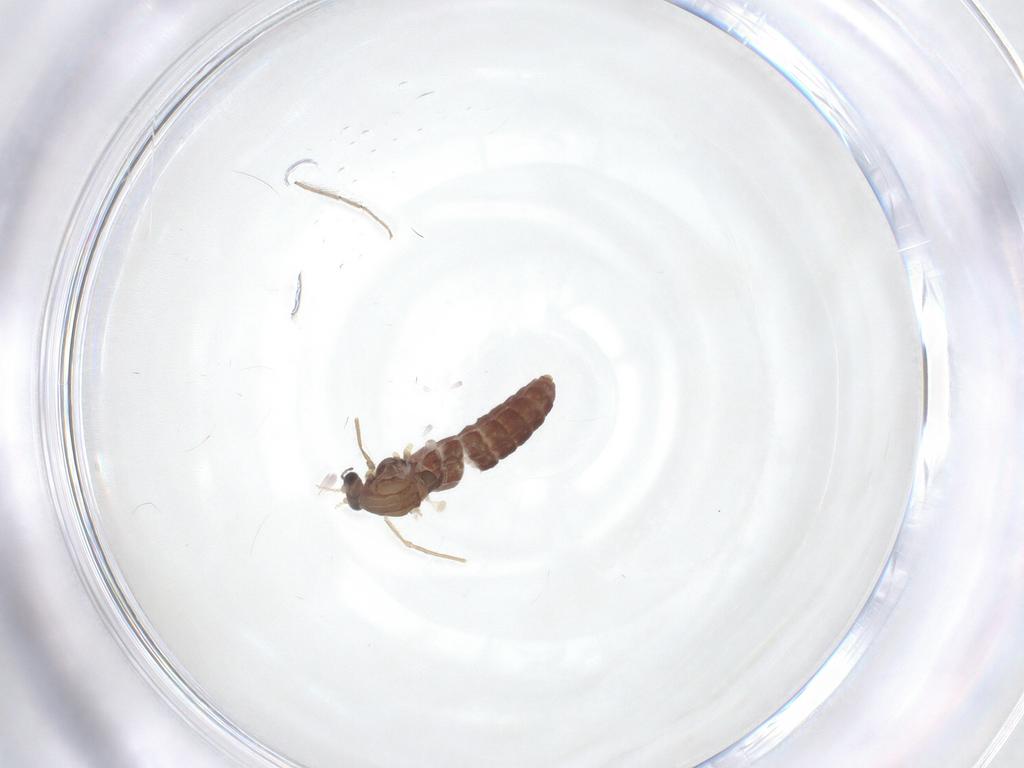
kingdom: Animalia
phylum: Arthropoda
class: Insecta
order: Diptera
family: Chironomidae
